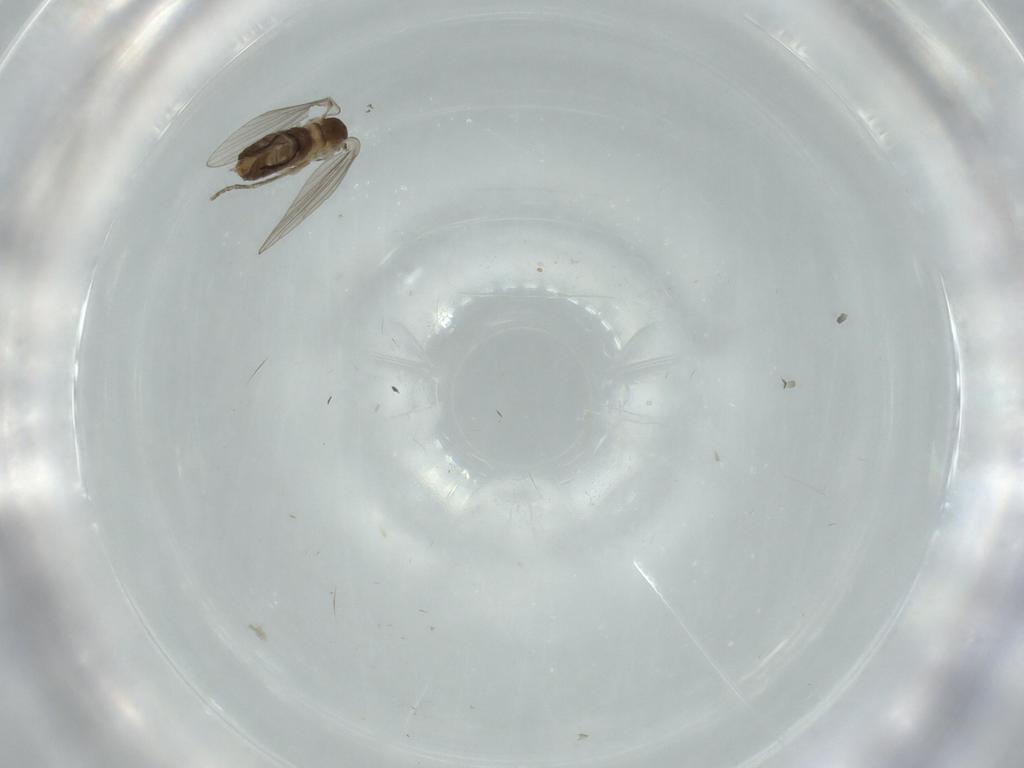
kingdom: Animalia
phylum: Arthropoda
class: Insecta
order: Diptera
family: Ceratopogonidae
